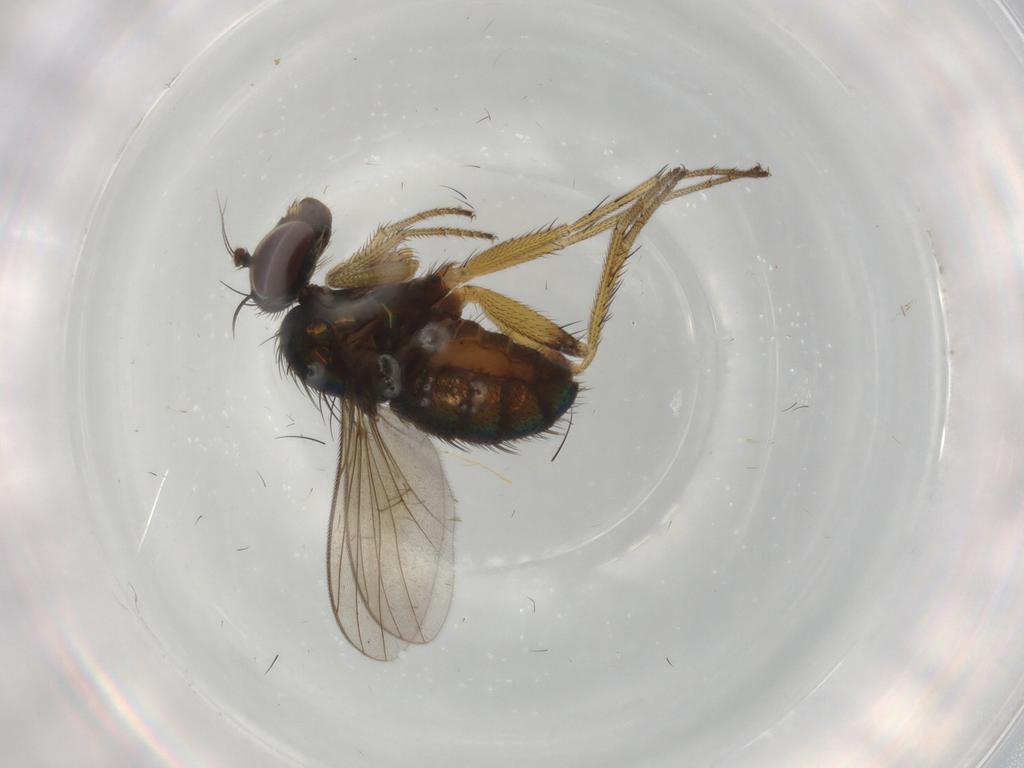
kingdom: Animalia
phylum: Arthropoda
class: Insecta
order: Diptera
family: Dolichopodidae
